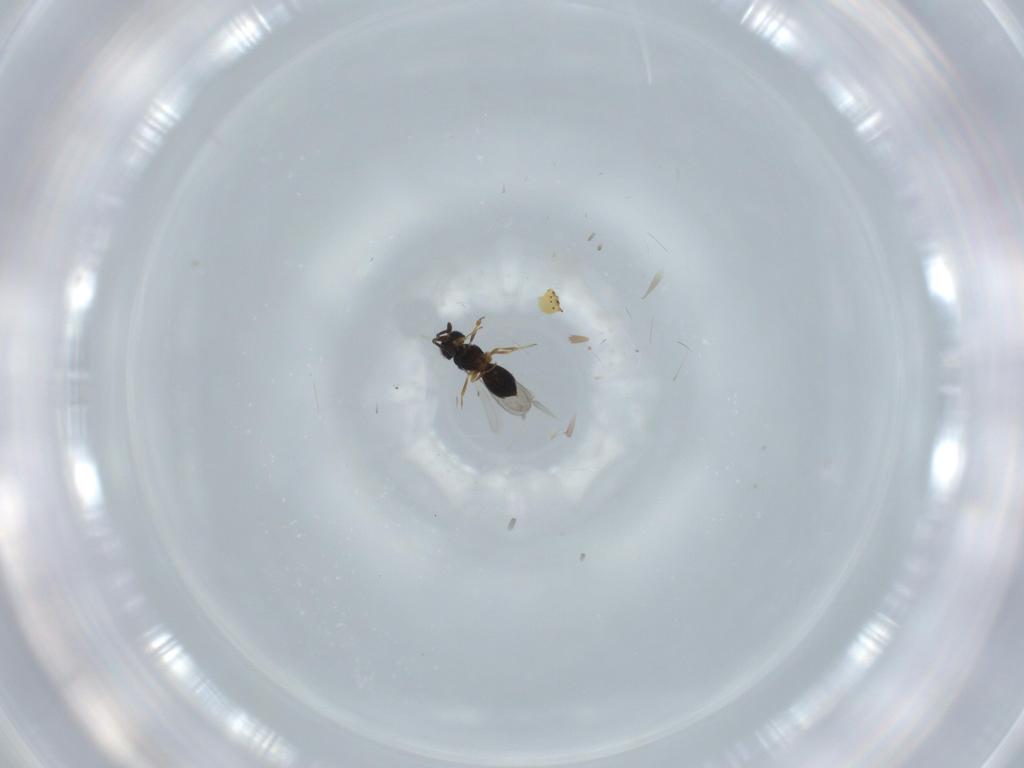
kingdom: Animalia
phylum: Arthropoda
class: Insecta
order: Hymenoptera
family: Scelionidae
